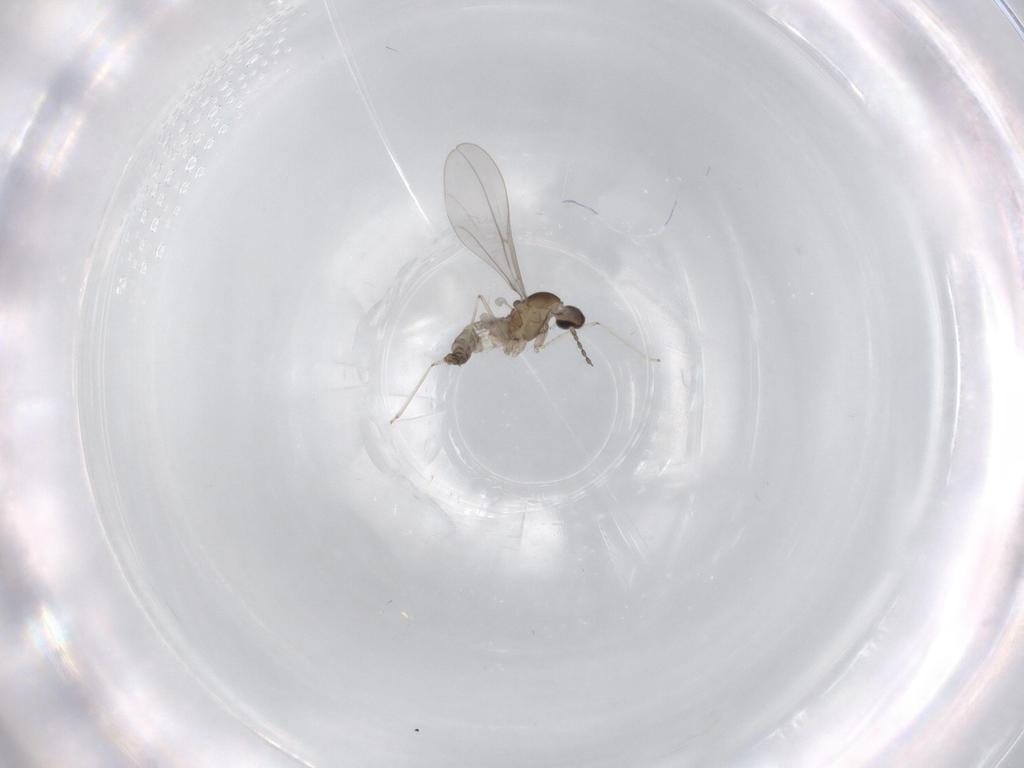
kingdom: Animalia
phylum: Arthropoda
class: Insecta
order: Diptera
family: Cecidomyiidae
